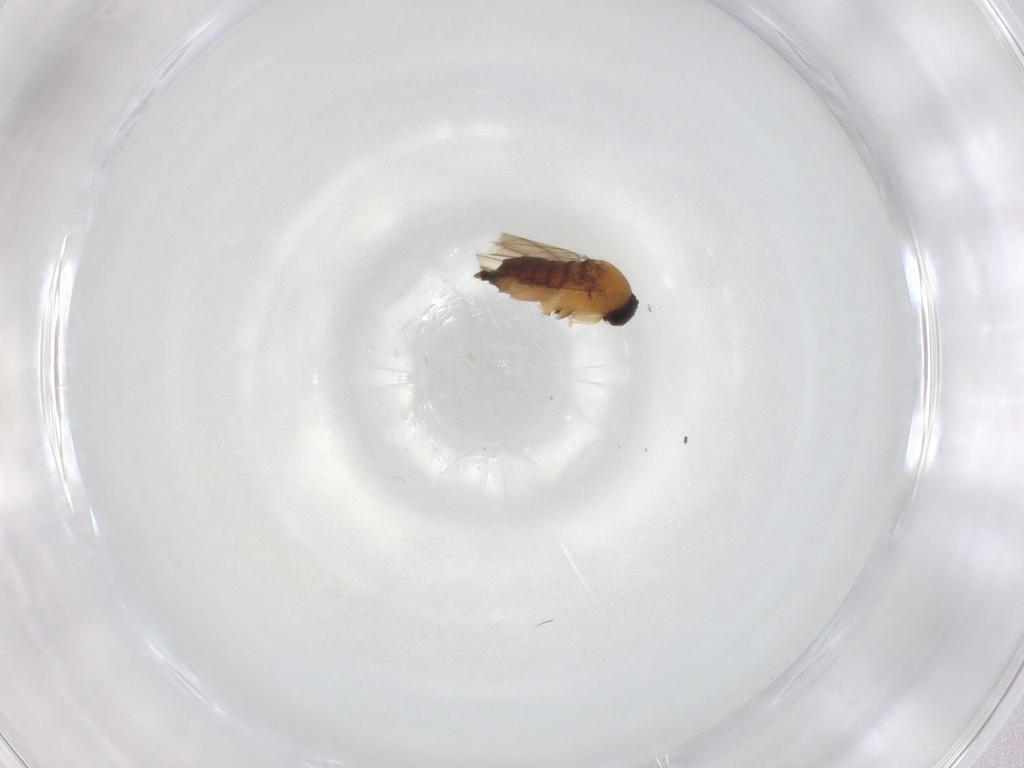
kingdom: Animalia
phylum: Arthropoda
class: Insecta
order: Diptera
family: Phoridae
